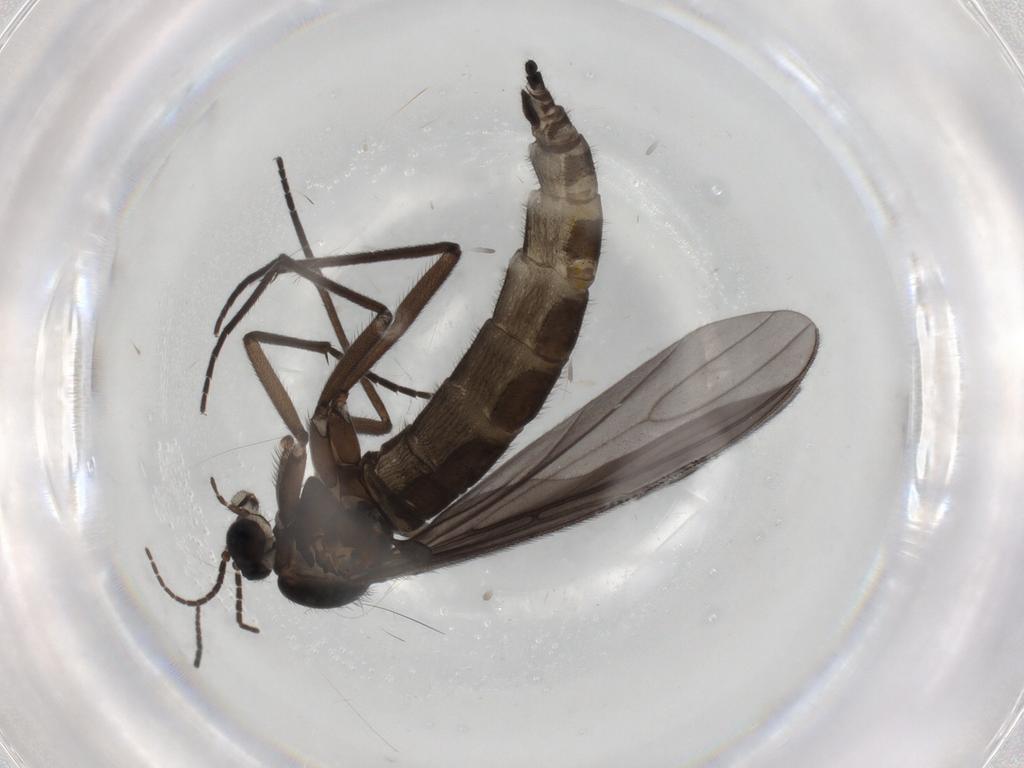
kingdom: Animalia
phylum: Arthropoda
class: Insecta
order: Diptera
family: Sciaridae
